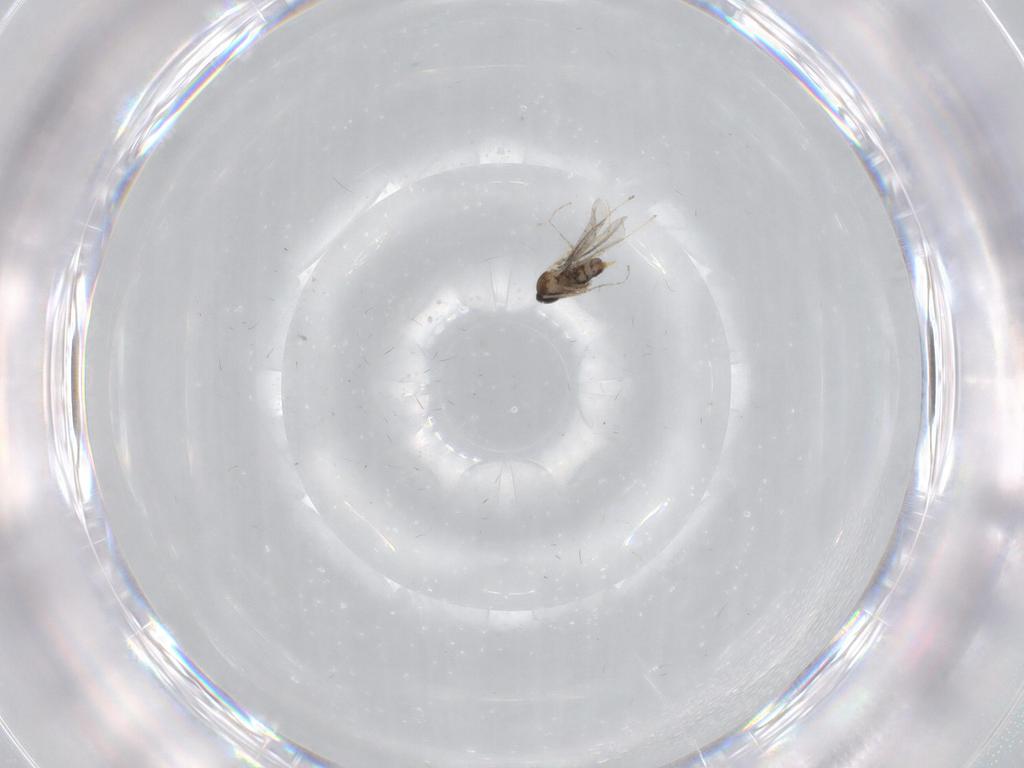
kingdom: Animalia
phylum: Arthropoda
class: Insecta
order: Diptera
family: Chironomidae
